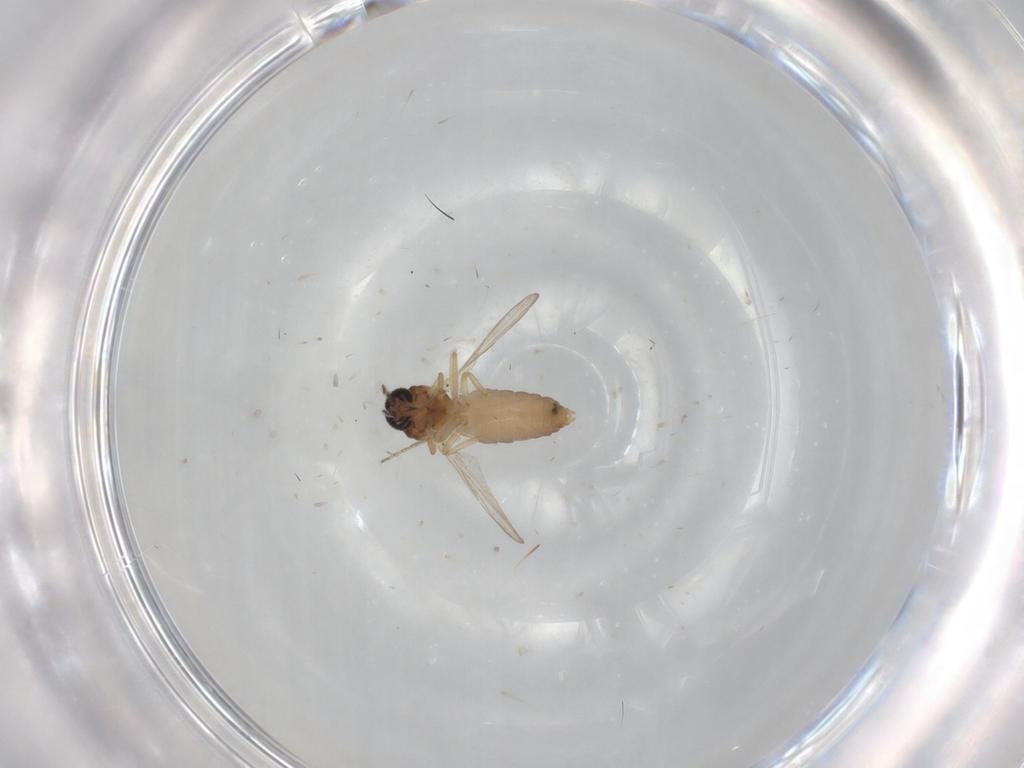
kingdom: Animalia
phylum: Arthropoda
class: Insecta
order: Diptera
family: Ceratopogonidae
